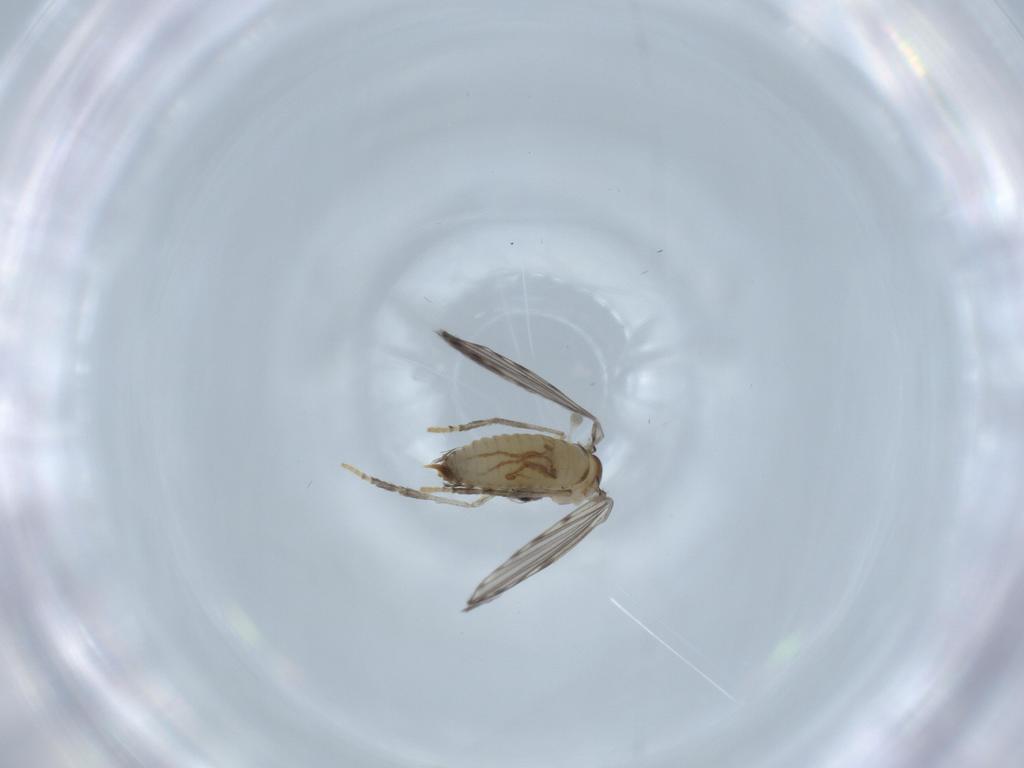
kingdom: Animalia
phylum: Arthropoda
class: Insecta
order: Diptera
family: Psychodidae
